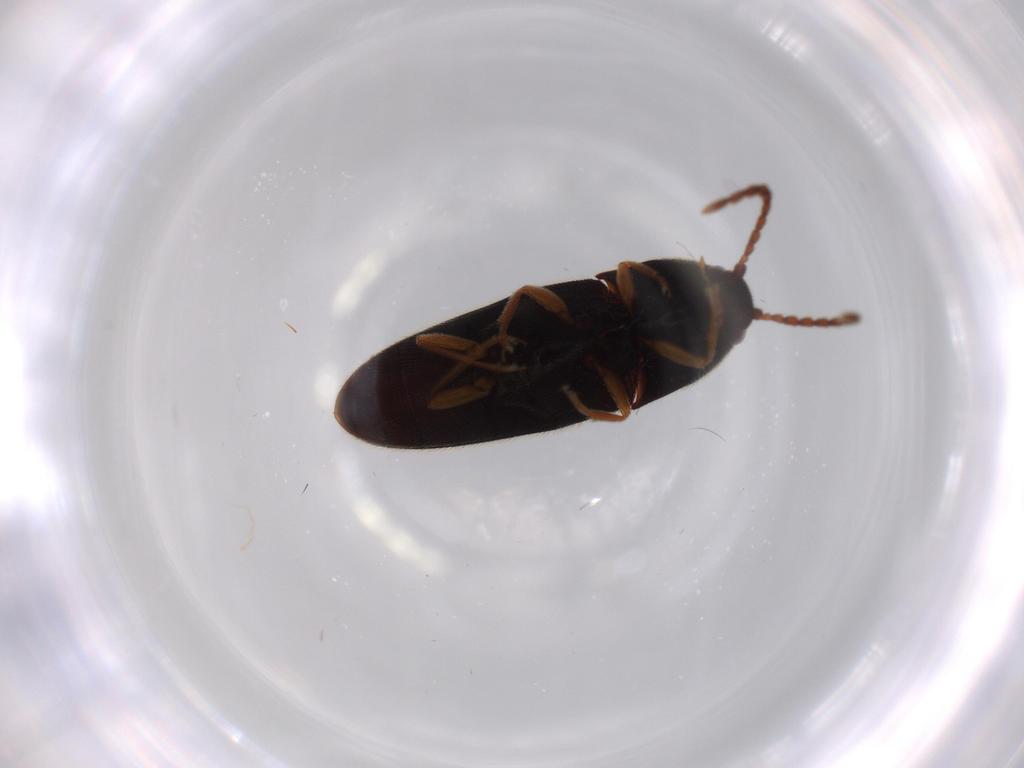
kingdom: Animalia
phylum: Arthropoda
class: Insecta
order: Coleoptera
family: Elateridae
